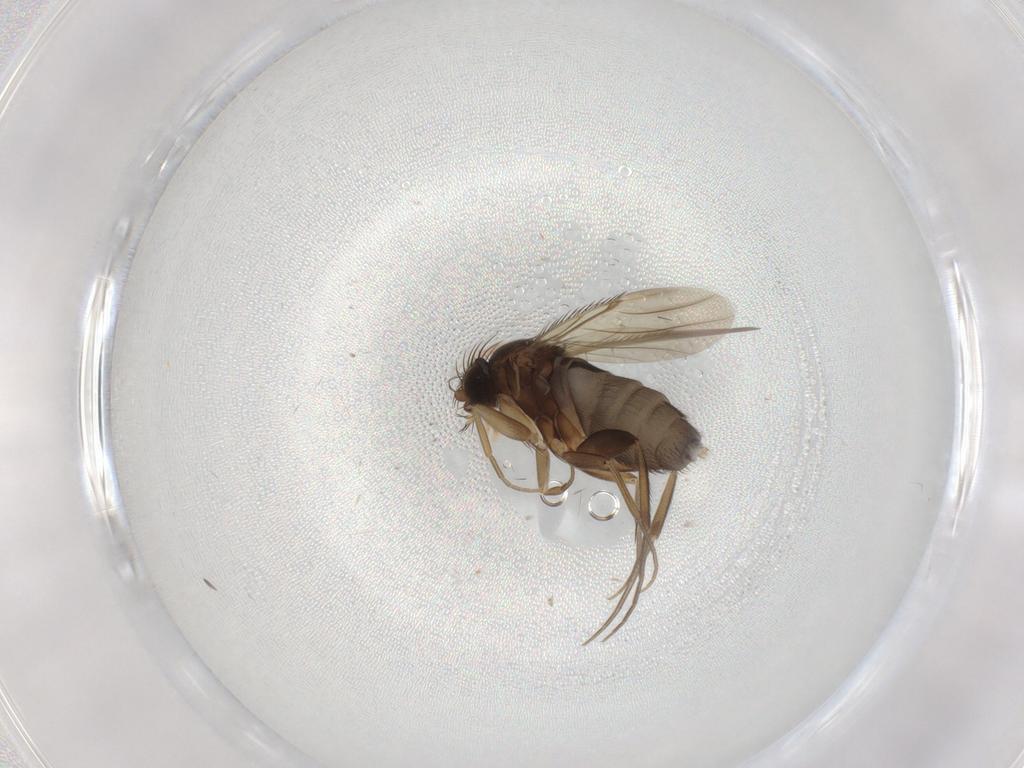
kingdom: Animalia
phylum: Arthropoda
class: Insecta
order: Diptera
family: Phoridae
